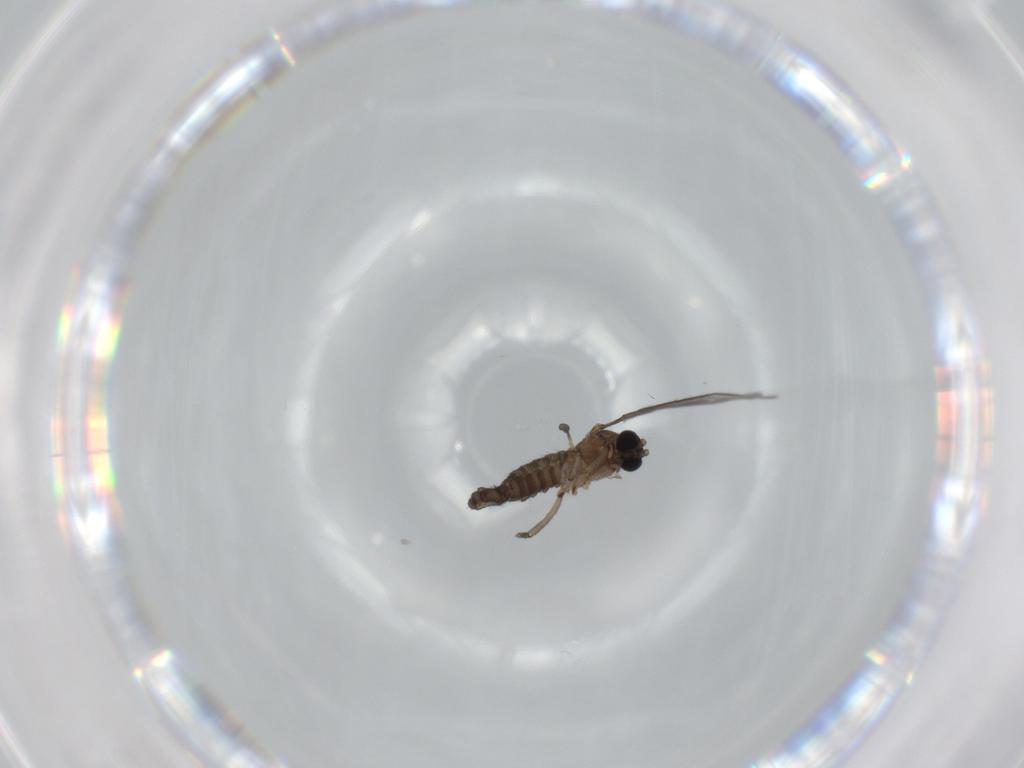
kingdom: Animalia
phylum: Arthropoda
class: Insecta
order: Diptera
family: Sciaridae
